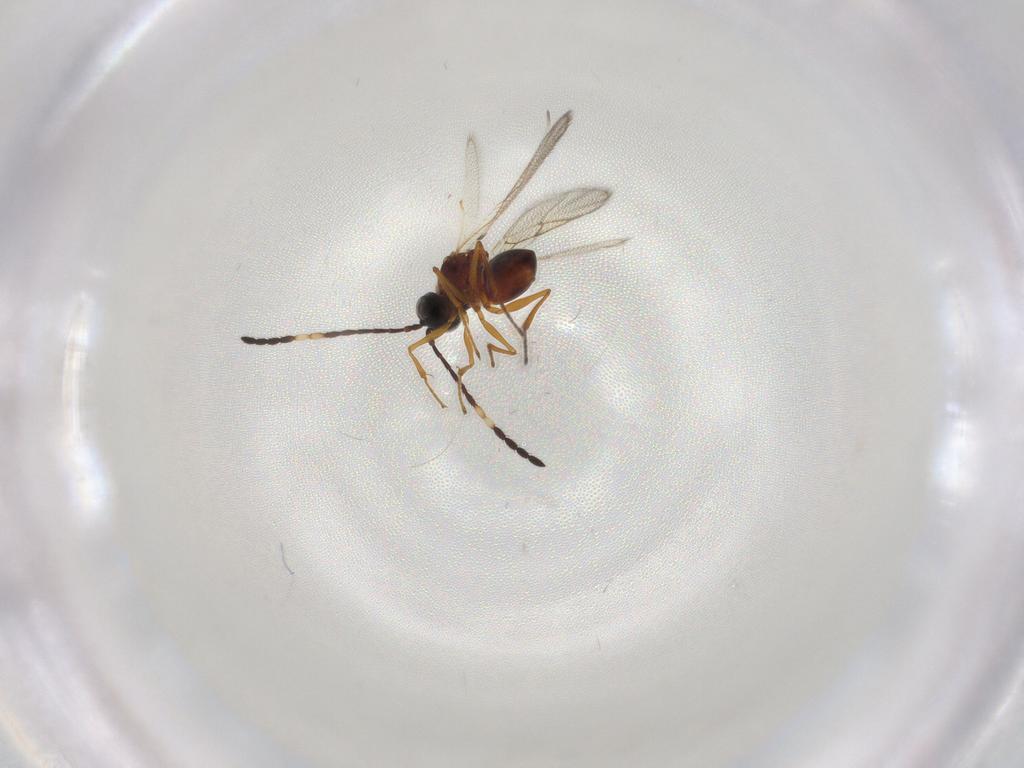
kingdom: Animalia
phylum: Arthropoda
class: Insecta
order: Hymenoptera
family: Figitidae
